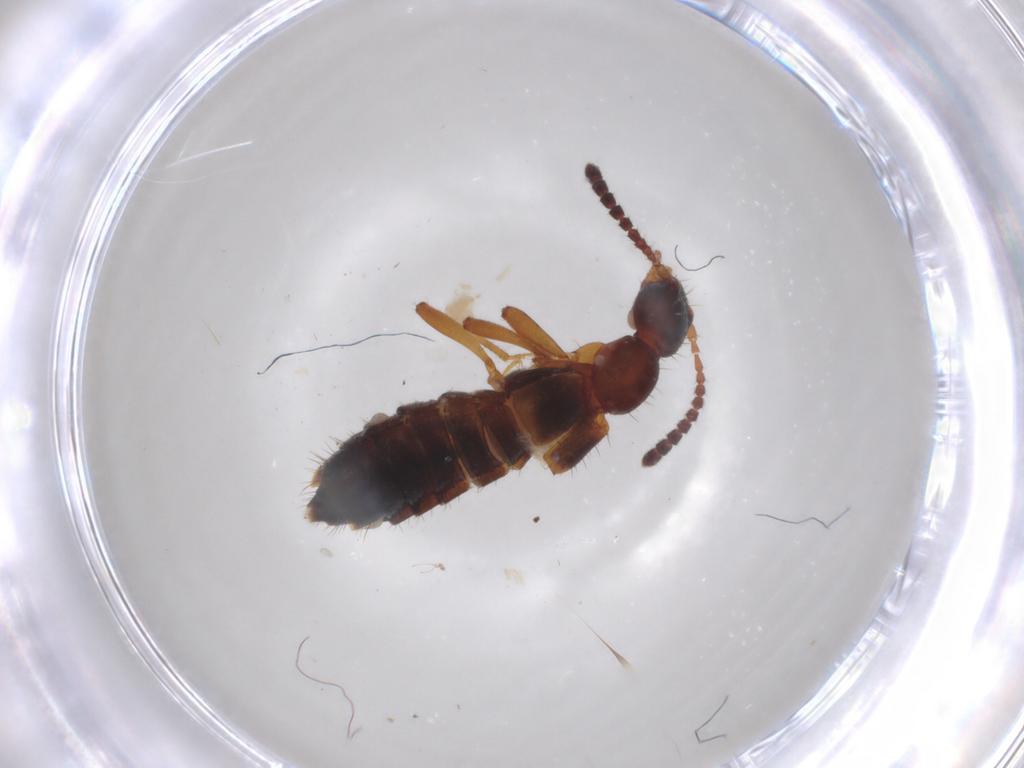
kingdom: Animalia
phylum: Arthropoda
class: Insecta
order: Coleoptera
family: Staphylinidae
